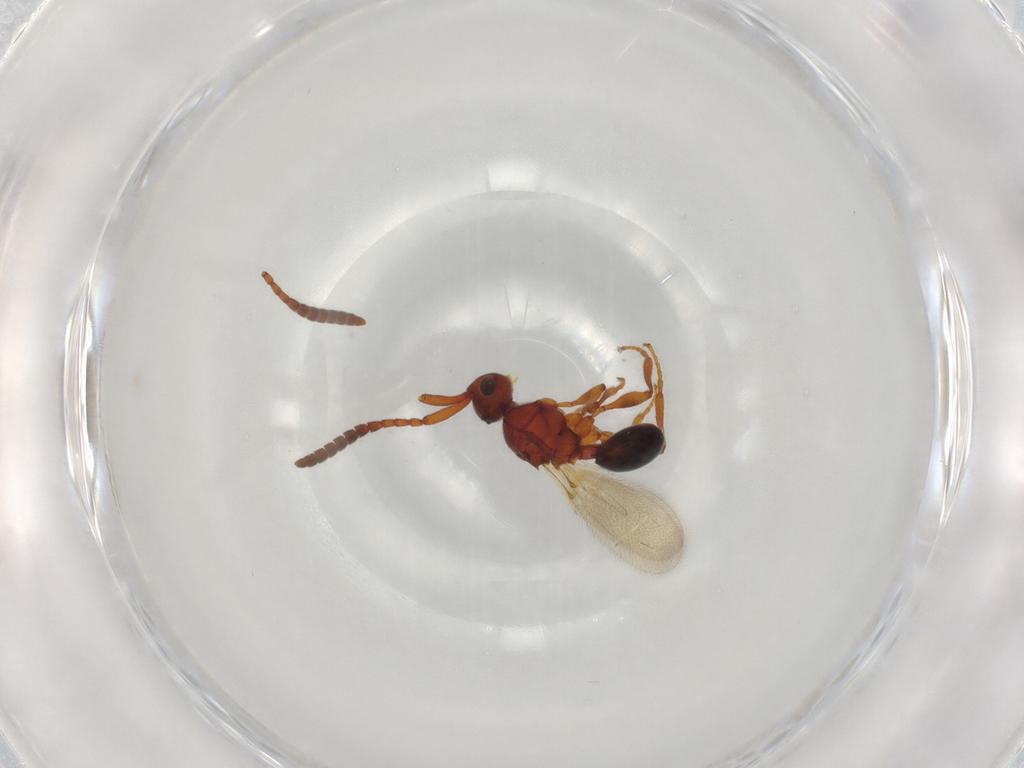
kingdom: Animalia
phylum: Arthropoda
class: Insecta
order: Hymenoptera
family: Diapriidae
